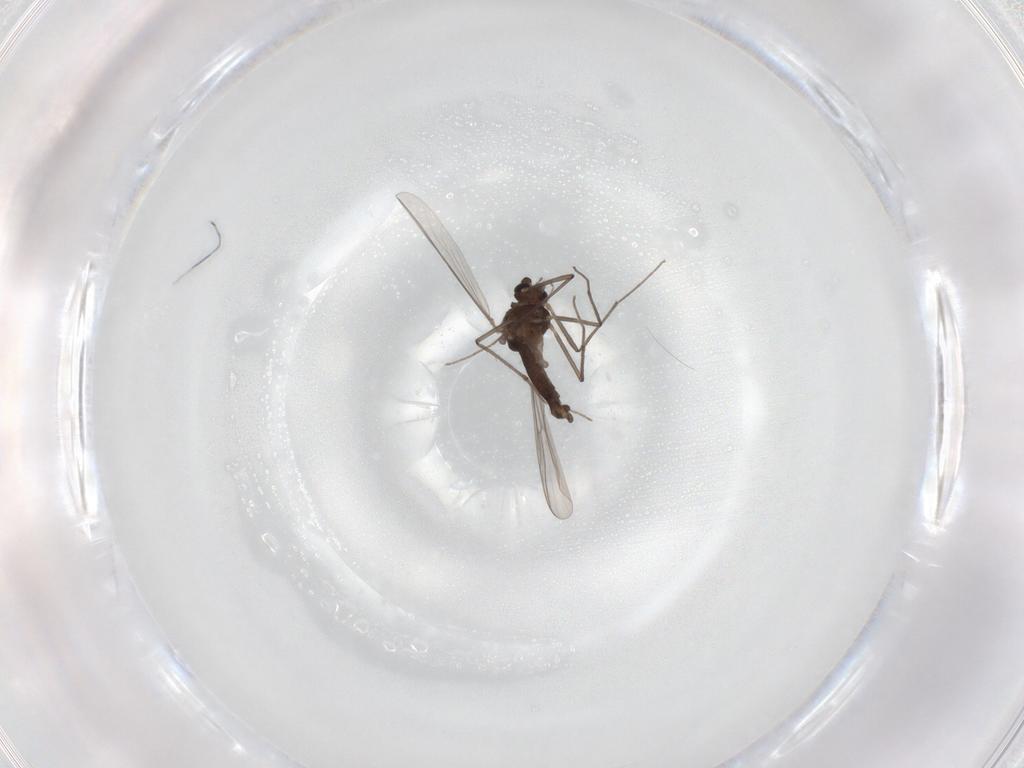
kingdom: Animalia
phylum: Arthropoda
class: Insecta
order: Diptera
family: Chironomidae
